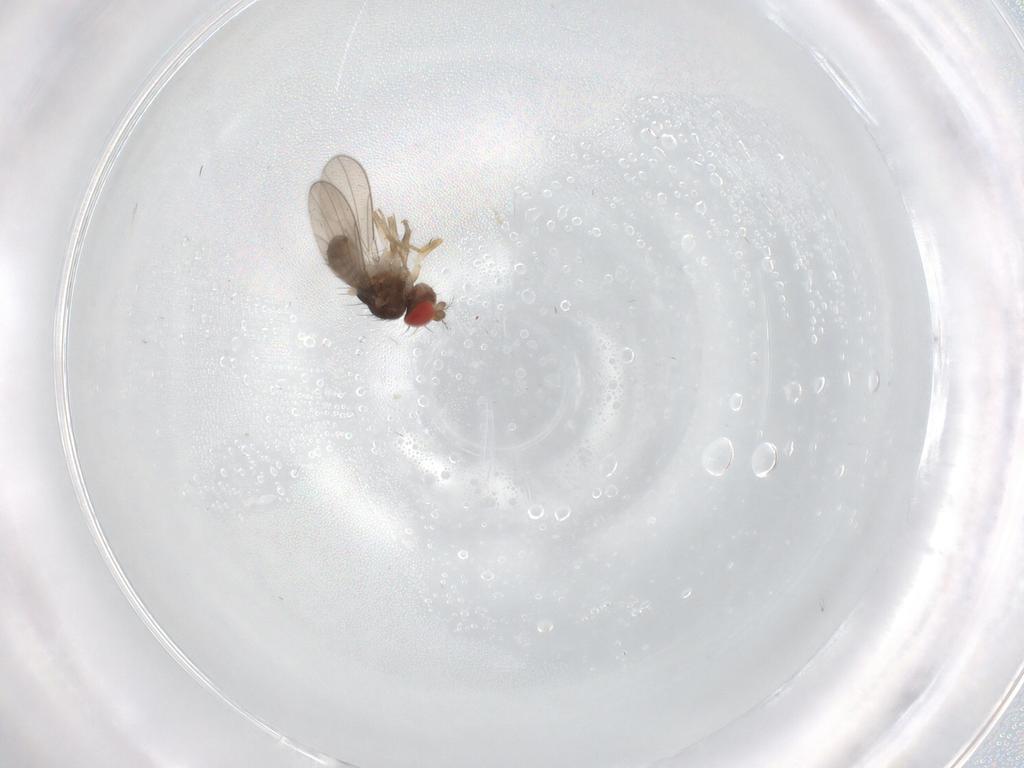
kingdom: Animalia
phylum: Arthropoda
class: Insecta
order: Diptera
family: Drosophilidae
